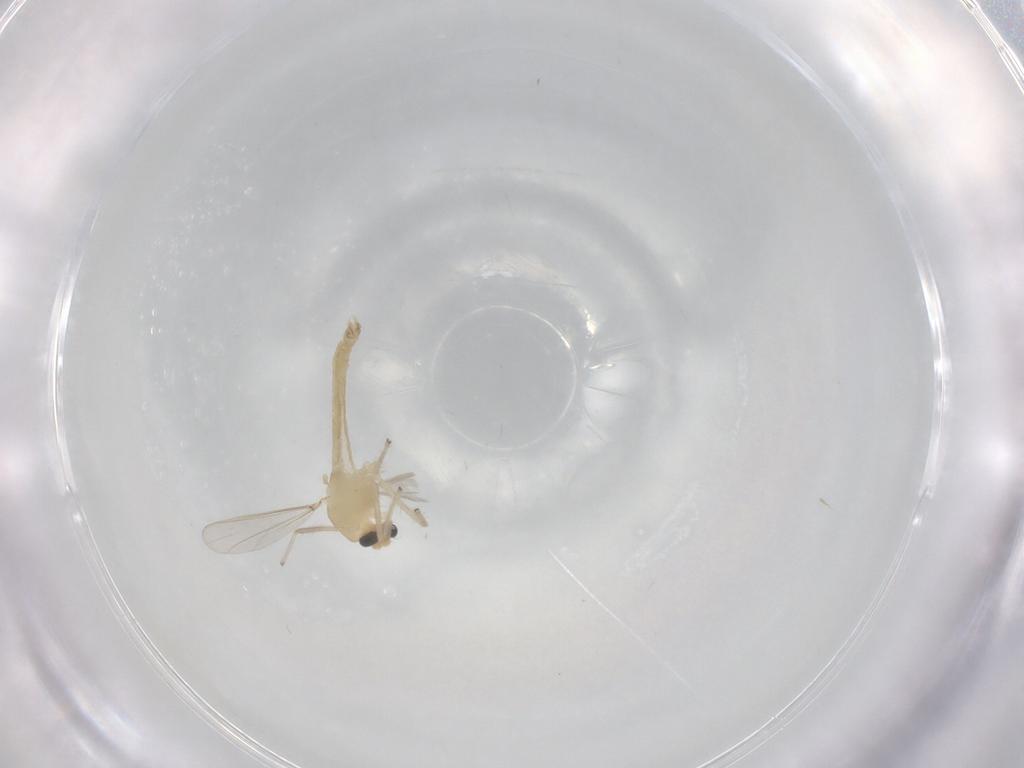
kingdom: Animalia
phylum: Arthropoda
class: Insecta
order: Diptera
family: Chironomidae
